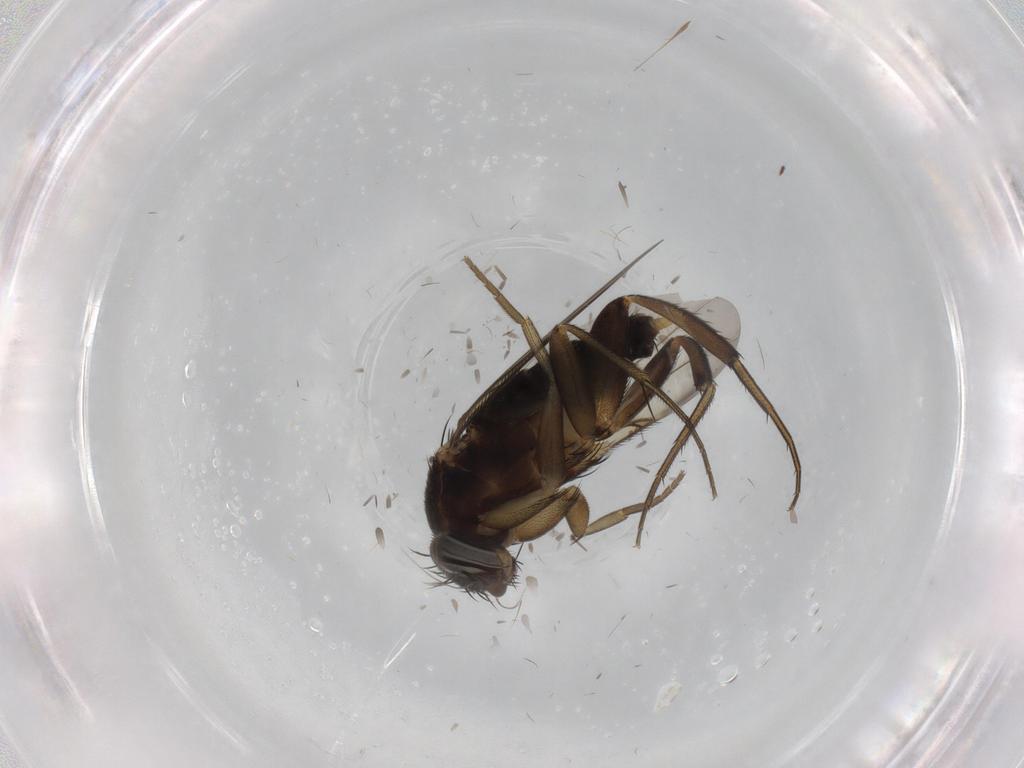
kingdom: Animalia
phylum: Arthropoda
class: Insecta
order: Diptera
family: Phoridae
